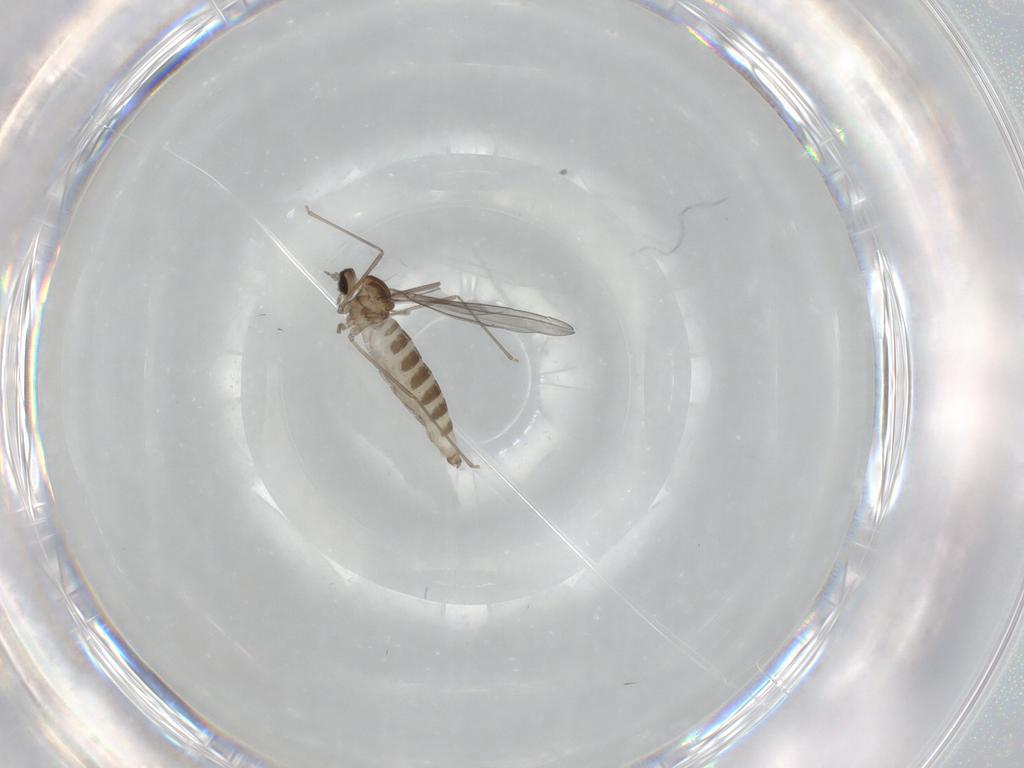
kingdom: Animalia
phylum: Arthropoda
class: Insecta
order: Diptera
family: Cecidomyiidae
